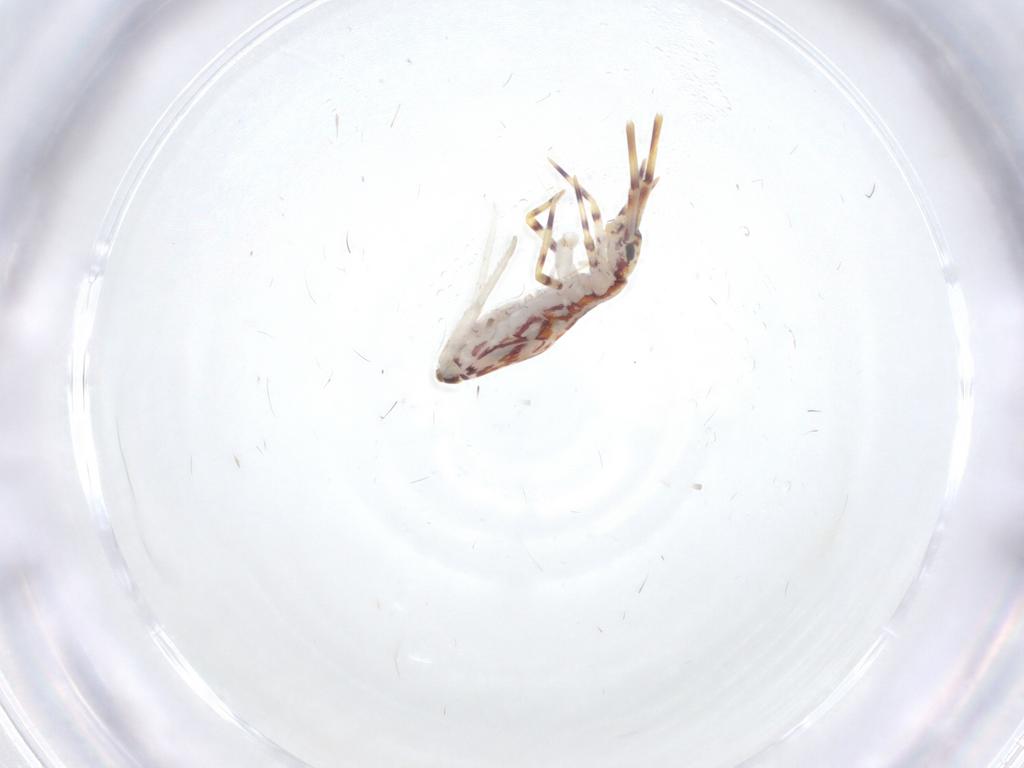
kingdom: Animalia
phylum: Arthropoda
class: Collembola
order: Entomobryomorpha
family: Entomobryidae
